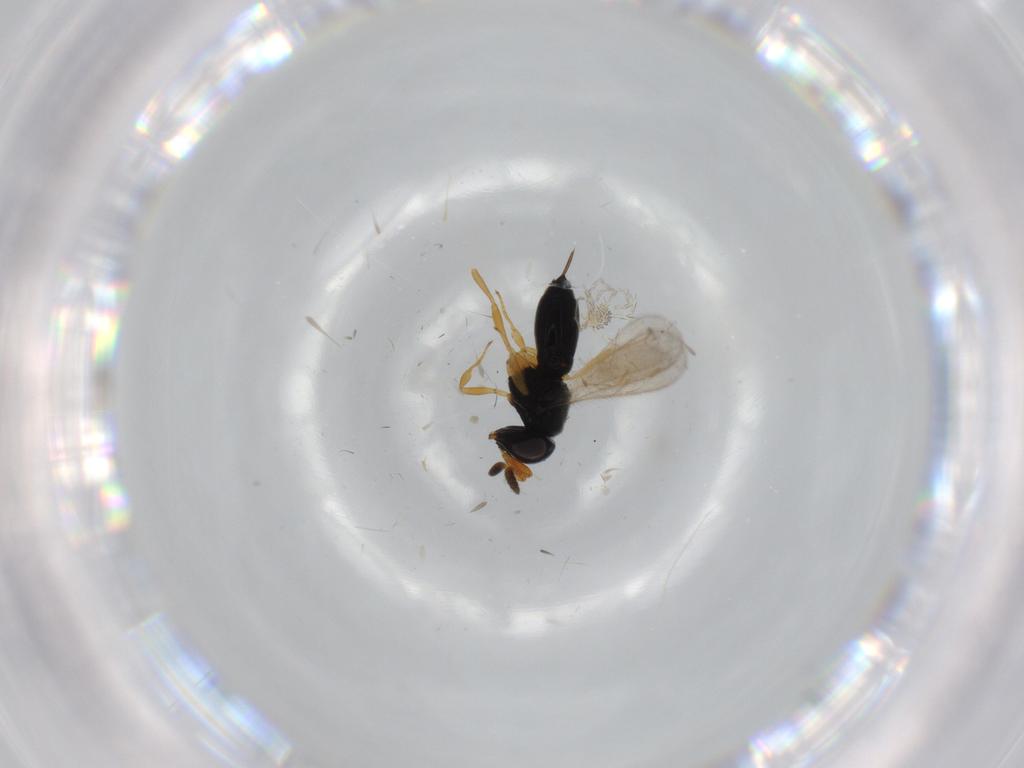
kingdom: Animalia
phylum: Arthropoda
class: Insecta
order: Hymenoptera
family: Scelionidae
